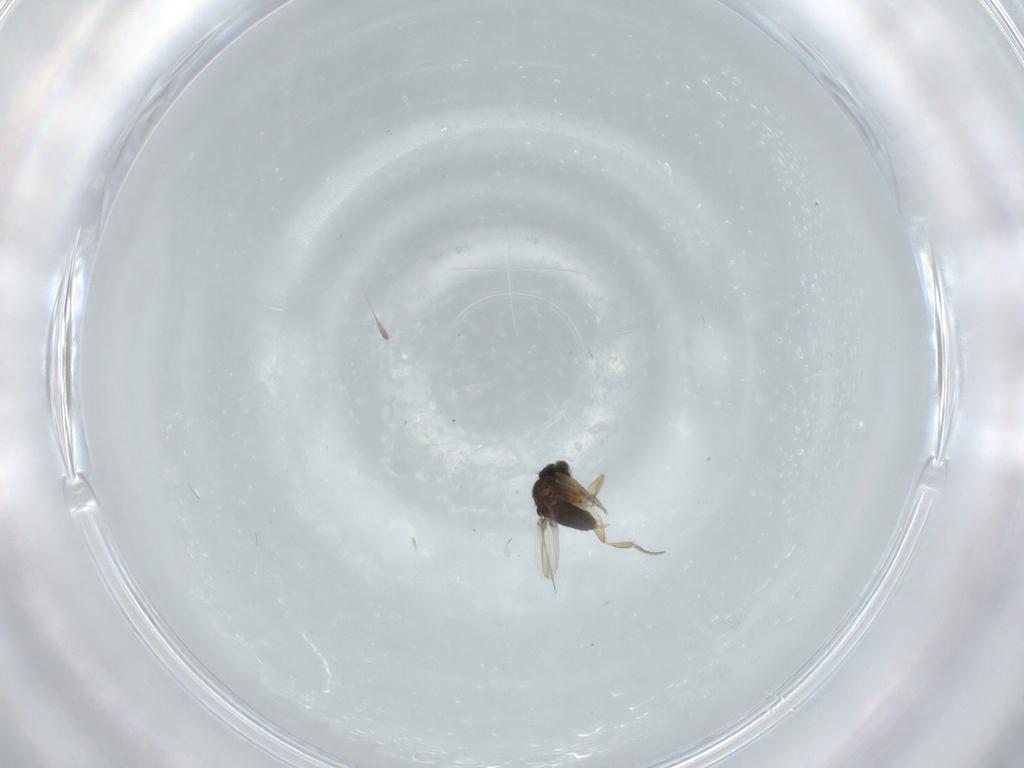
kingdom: Animalia
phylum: Arthropoda
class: Insecta
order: Diptera
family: Phoridae
